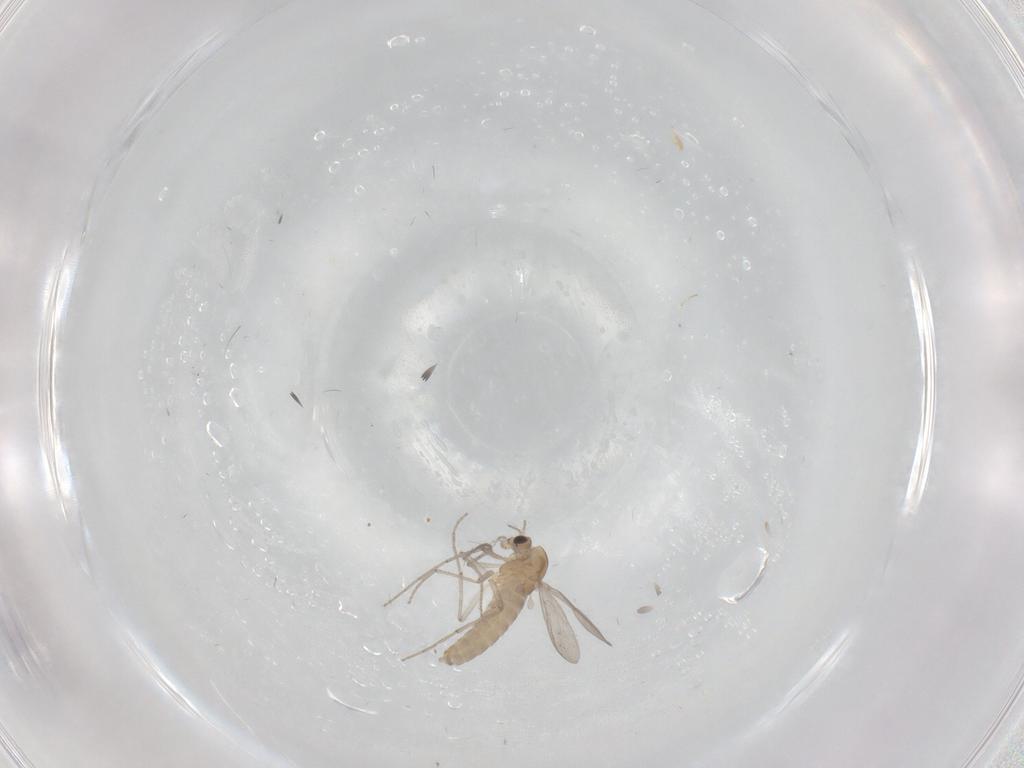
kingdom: Animalia
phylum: Arthropoda
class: Insecta
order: Diptera
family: Chironomidae
